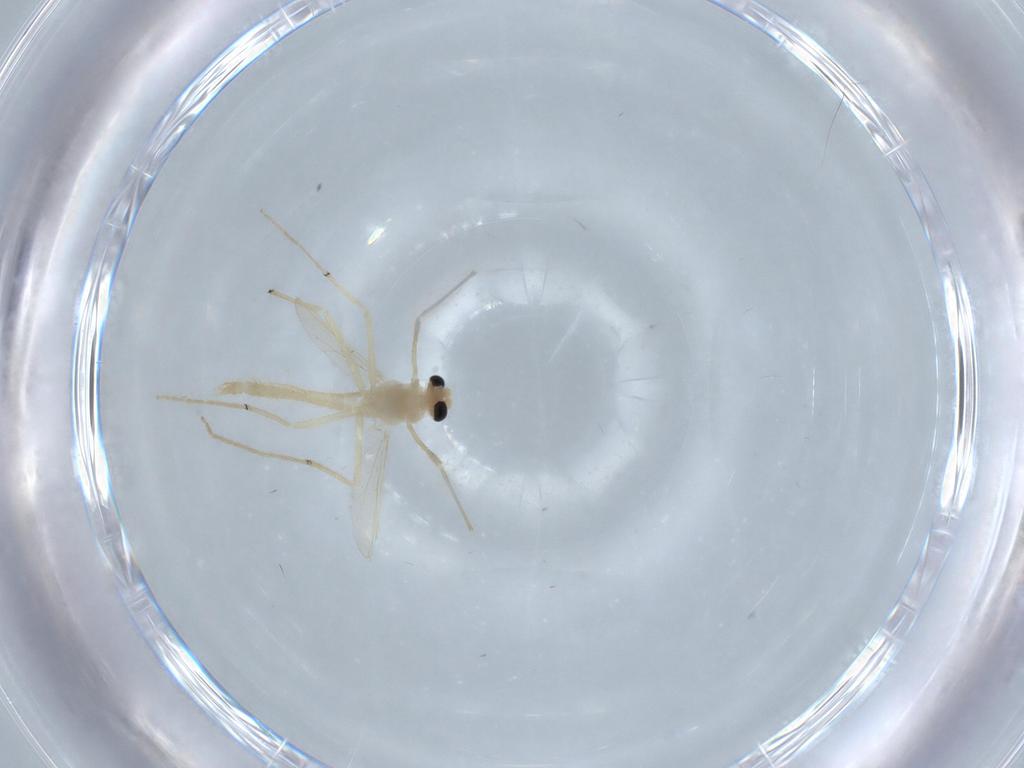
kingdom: Animalia
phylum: Arthropoda
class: Insecta
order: Diptera
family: Chironomidae
